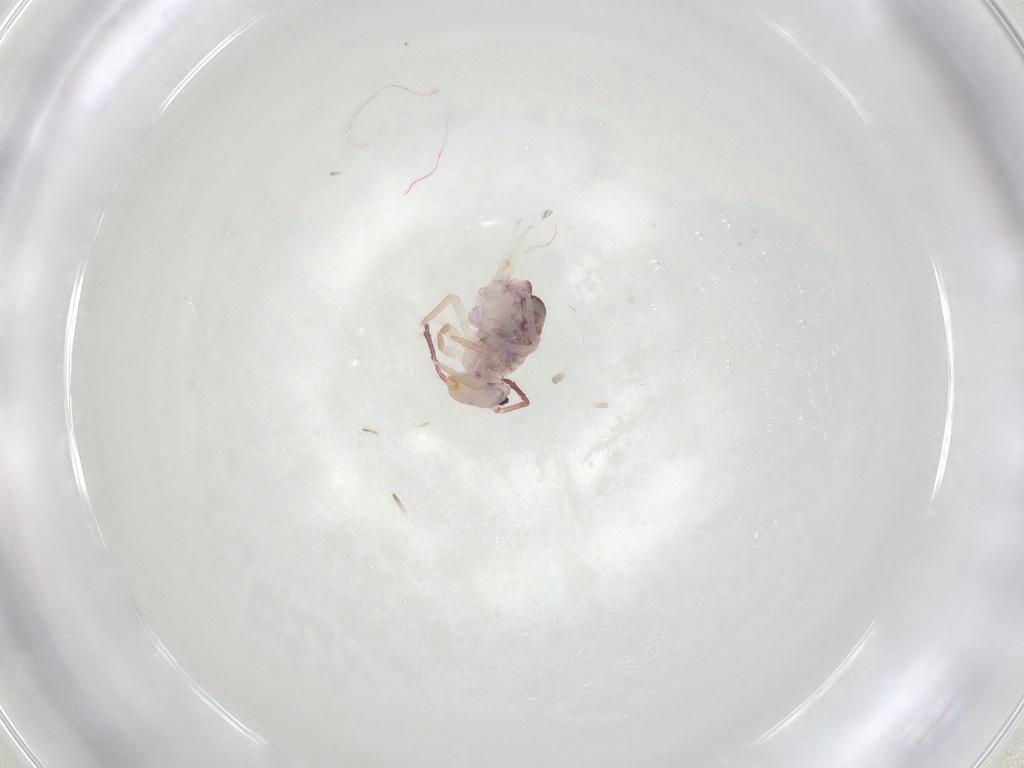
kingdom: Animalia
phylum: Arthropoda
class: Collembola
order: Symphypleona
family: Dicyrtomidae
